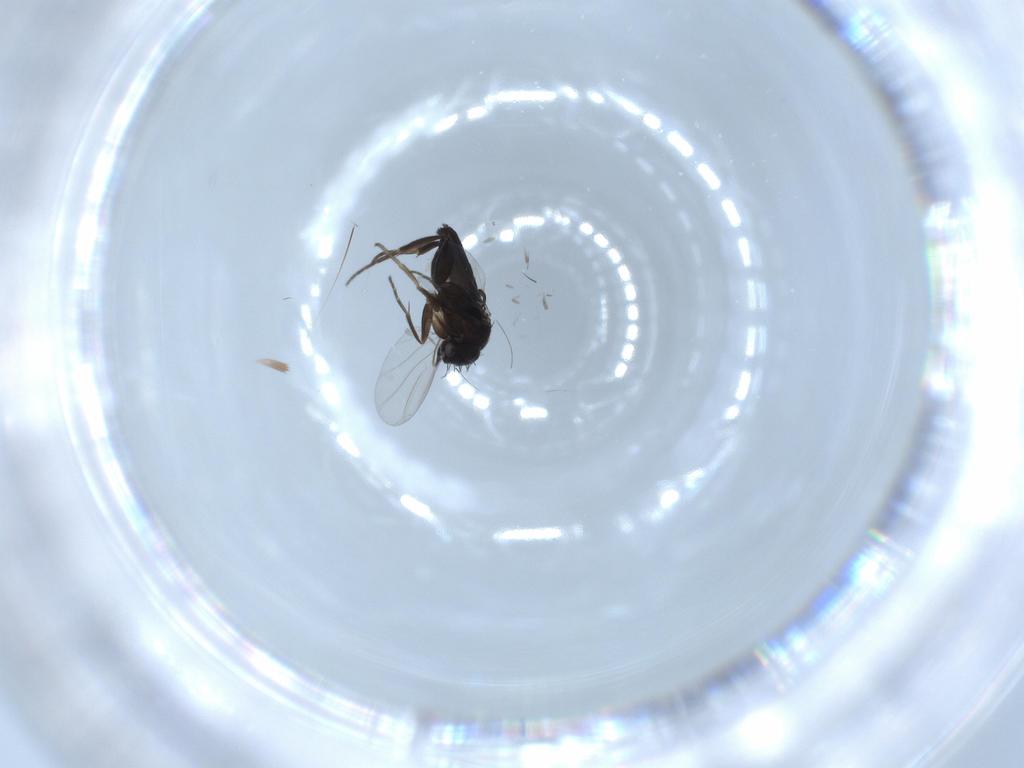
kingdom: Animalia
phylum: Arthropoda
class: Insecta
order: Diptera
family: Phoridae
